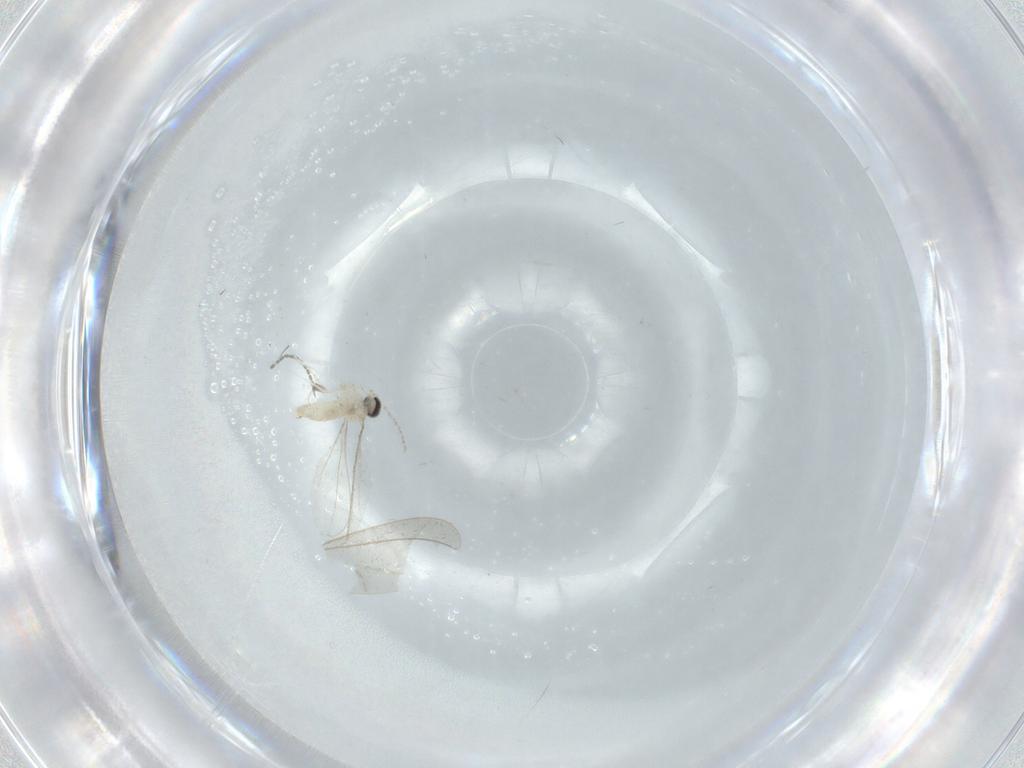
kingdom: Animalia
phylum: Arthropoda
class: Insecta
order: Diptera
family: Cecidomyiidae
